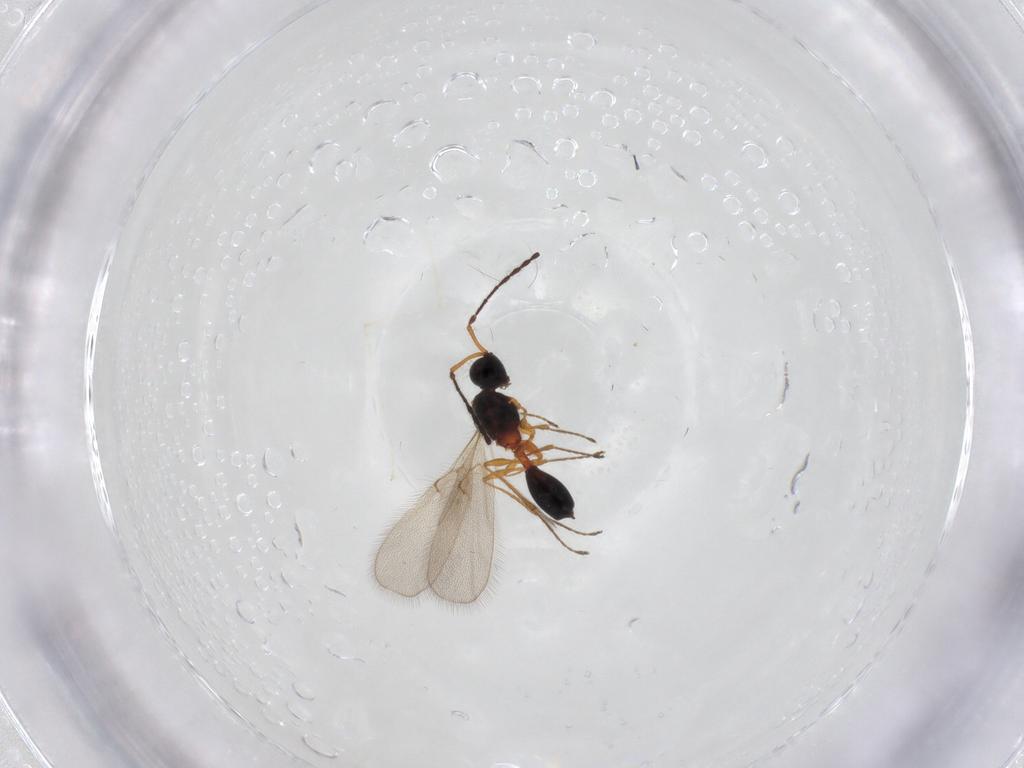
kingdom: Animalia
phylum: Arthropoda
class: Insecta
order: Hymenoptera
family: Diapriidae
